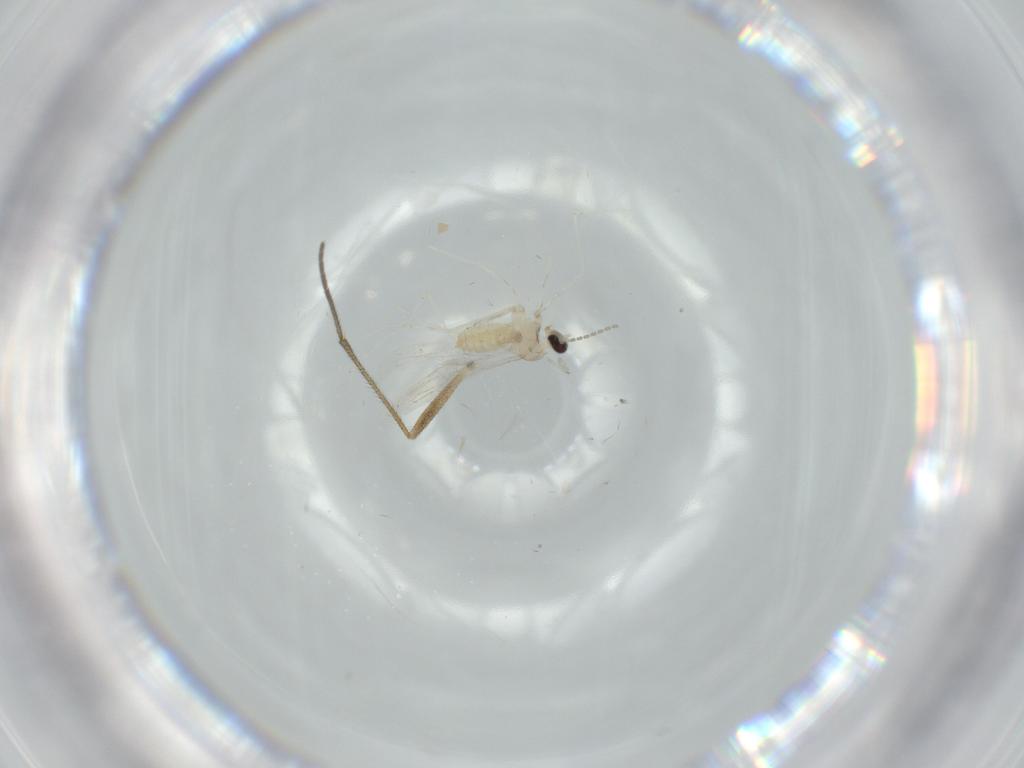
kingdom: Animalia
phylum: Arthropoda
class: Insecta
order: Diptera
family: Cecidomyiidae
